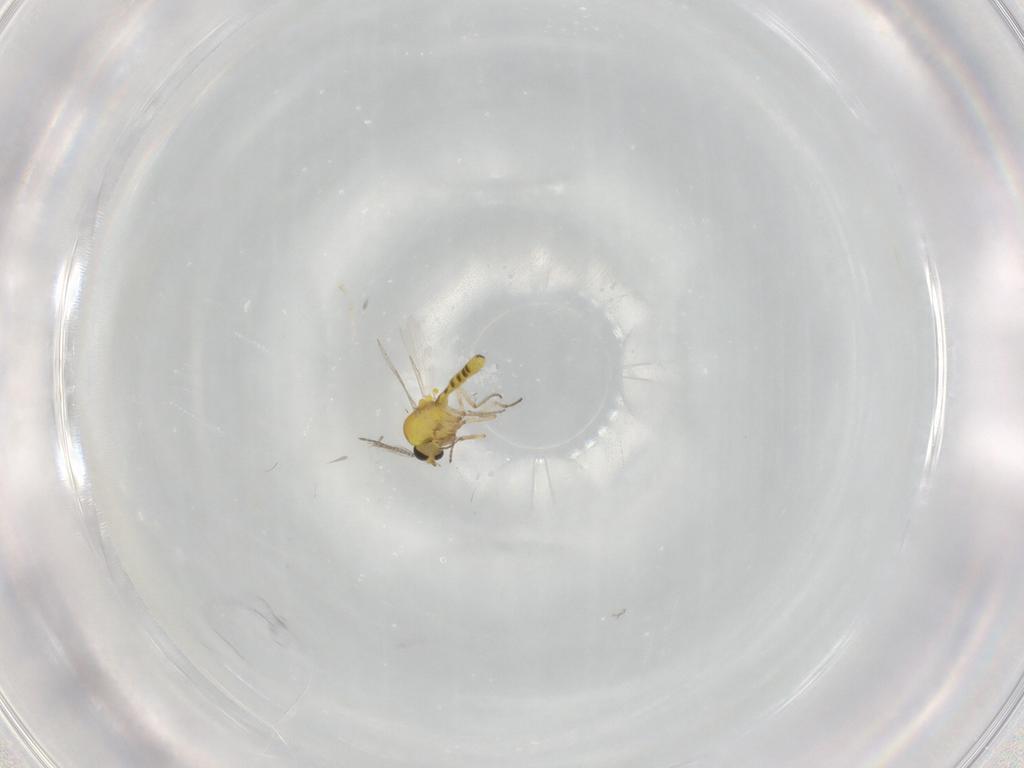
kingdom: Animalia
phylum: Arthropoda
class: Insecta
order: Diptera
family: Ceratopogonidae
